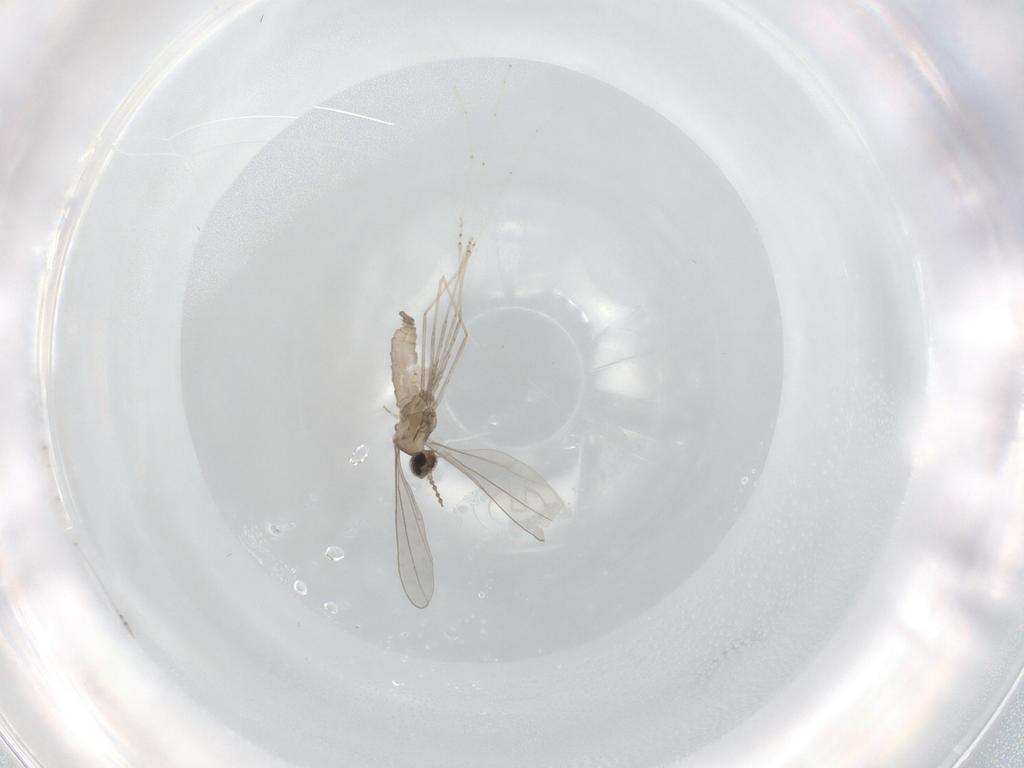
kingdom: Animalia
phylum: Arthropoda
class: Insecta
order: Diptera
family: Cecidomyiidae
